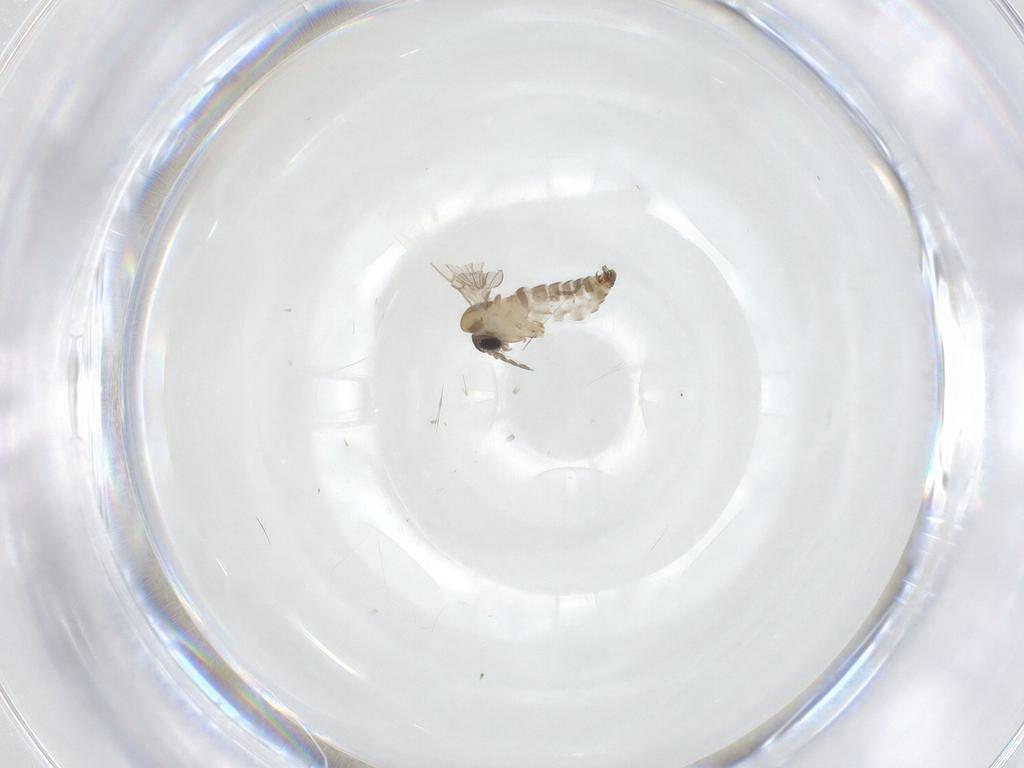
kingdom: Animalia
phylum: Arthropoda
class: Insecta
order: Diptera
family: Psychodidae
